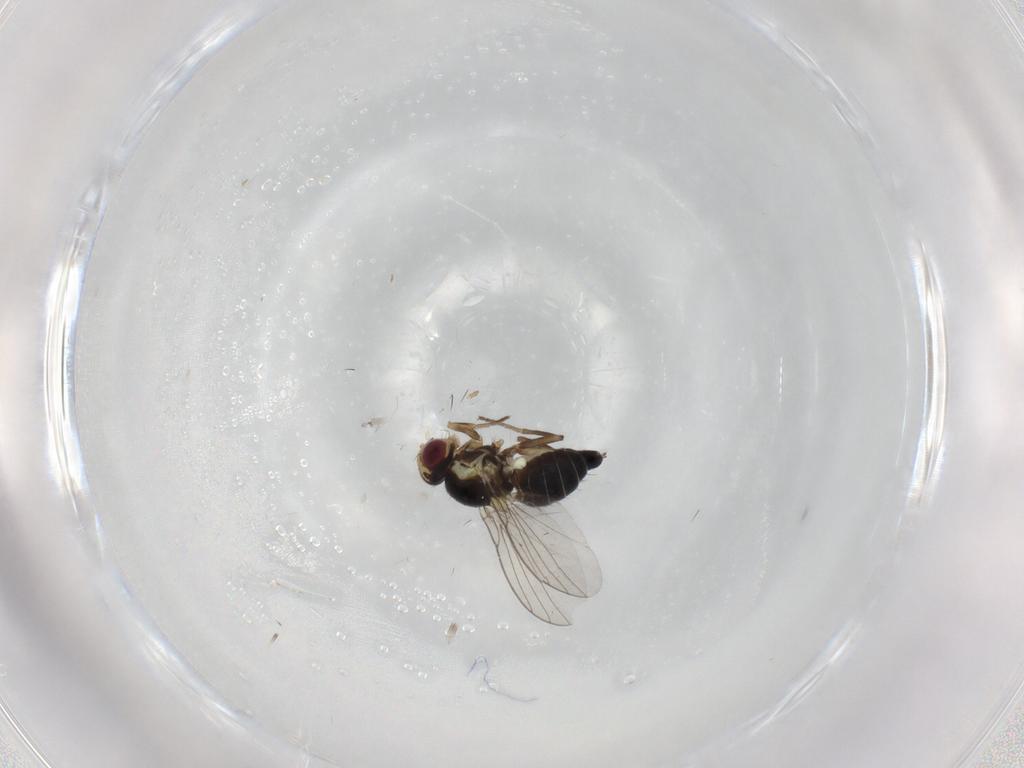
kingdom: Animalia
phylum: Arthropoda
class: Insecta
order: Diptera
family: Agromyzidae
